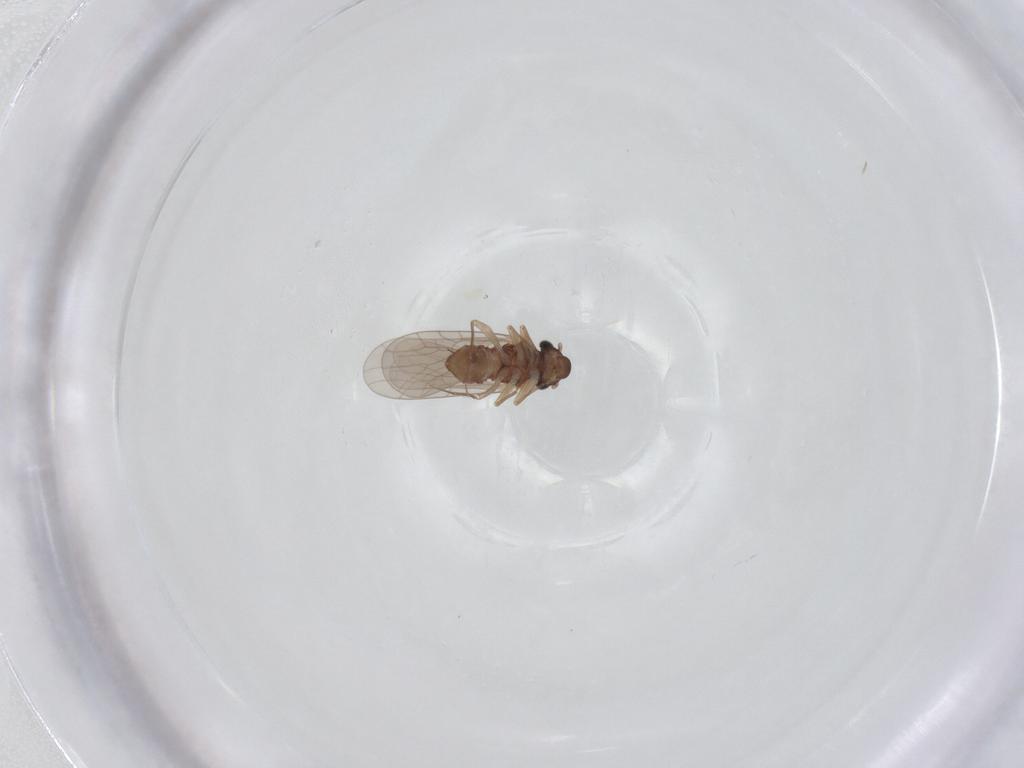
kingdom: Animalia
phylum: Arthropoda
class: Insecta
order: Psocodea
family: Lepidopsocidae
